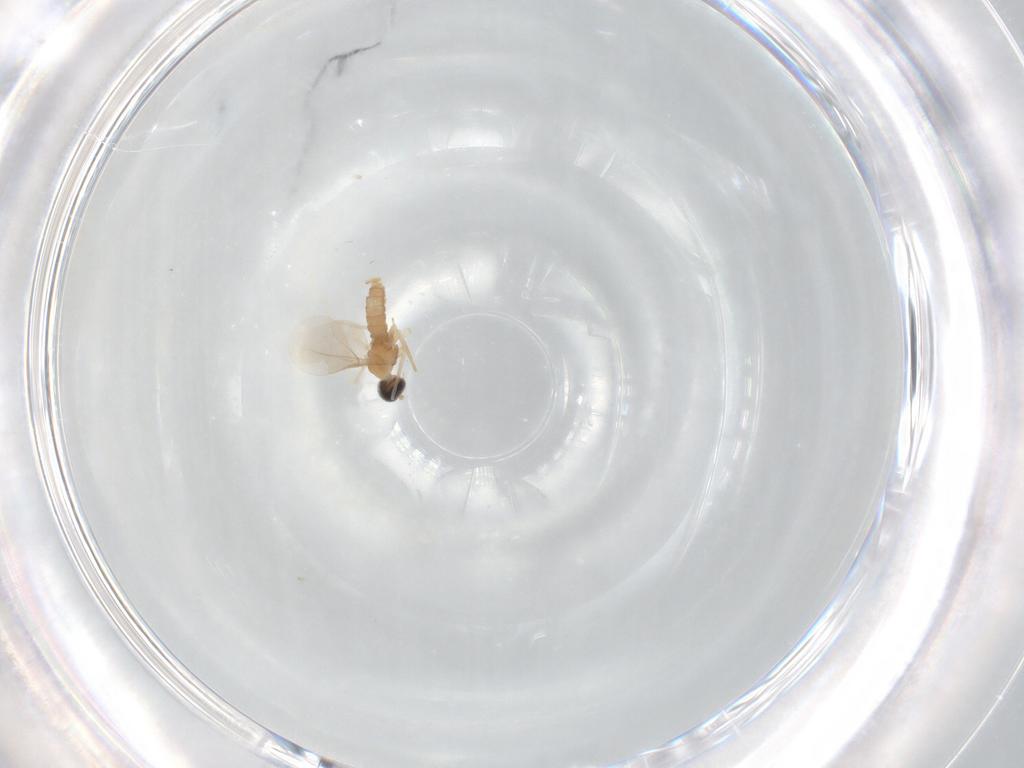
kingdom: Animalia
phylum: Arthropoda
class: Insecta
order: Diptera
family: Cecidomyiidae
